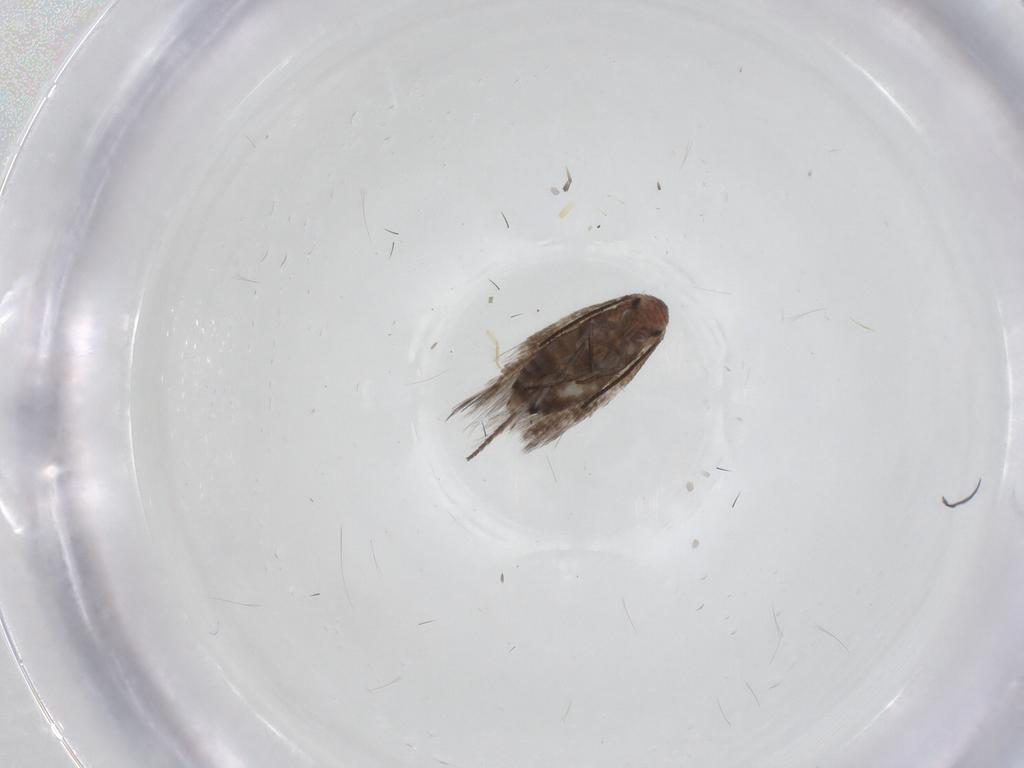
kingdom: Animalia
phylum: Arthropoda
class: Insecta
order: Lepidoptera
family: Lyonetiidae
